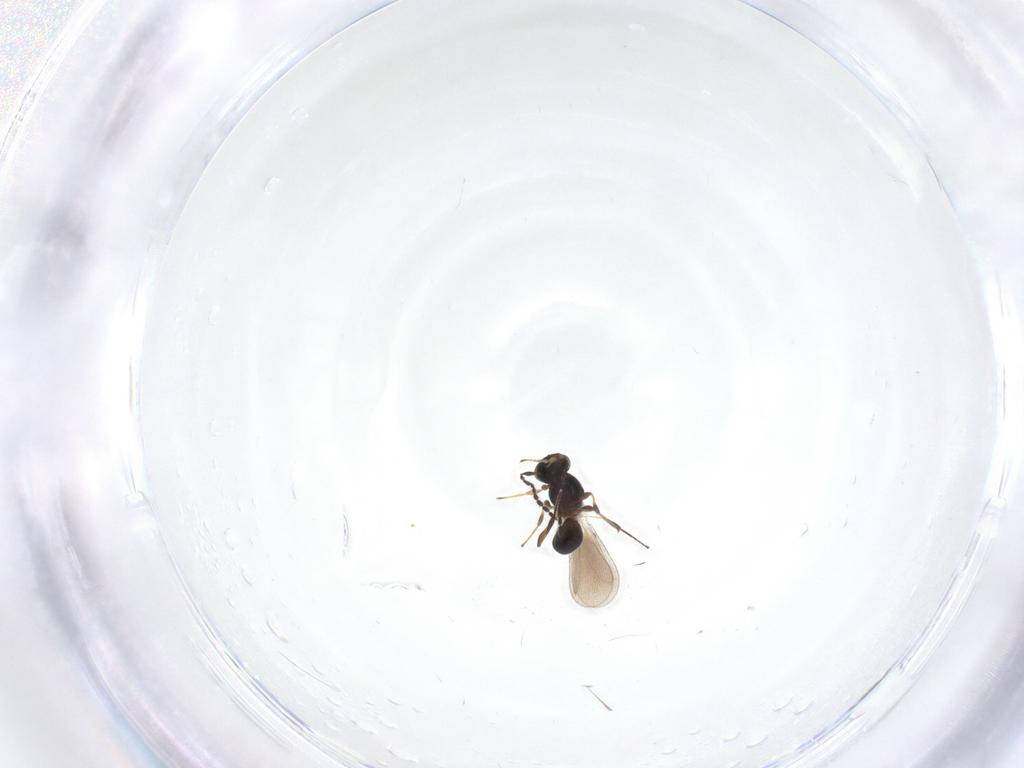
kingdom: Animalia
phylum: Arthropoda
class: Insecta
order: Hymenoptera
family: Platygastridae
